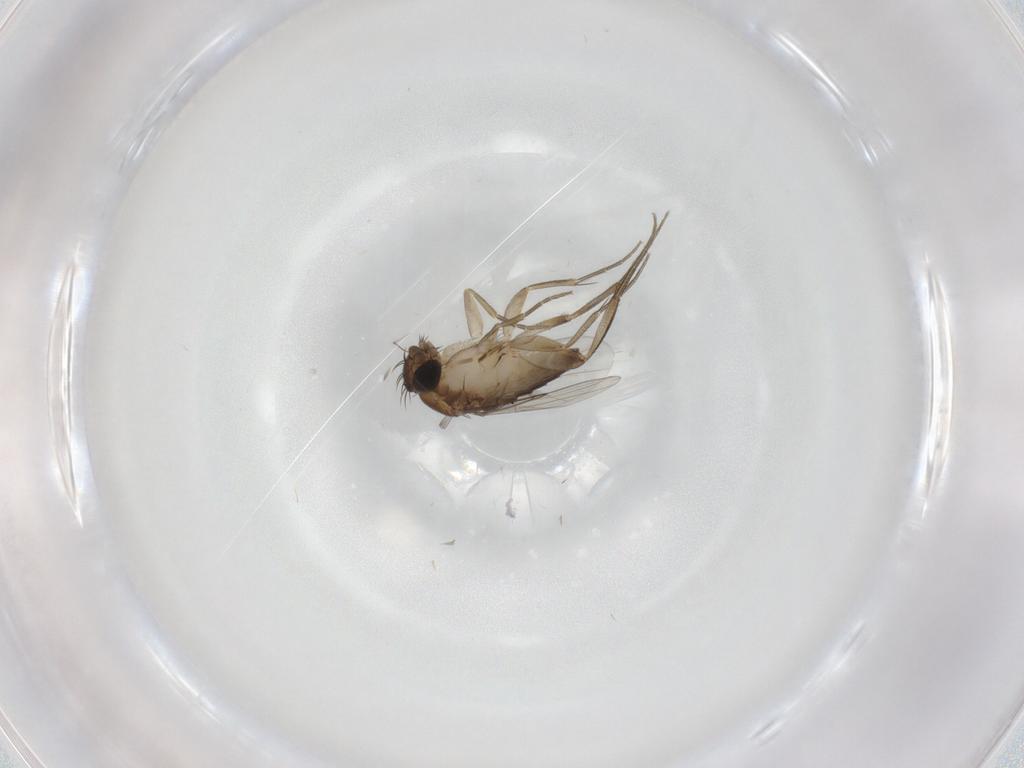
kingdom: Animalia
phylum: Arthropoda
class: Insecta
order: Diptera
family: Phoridae
